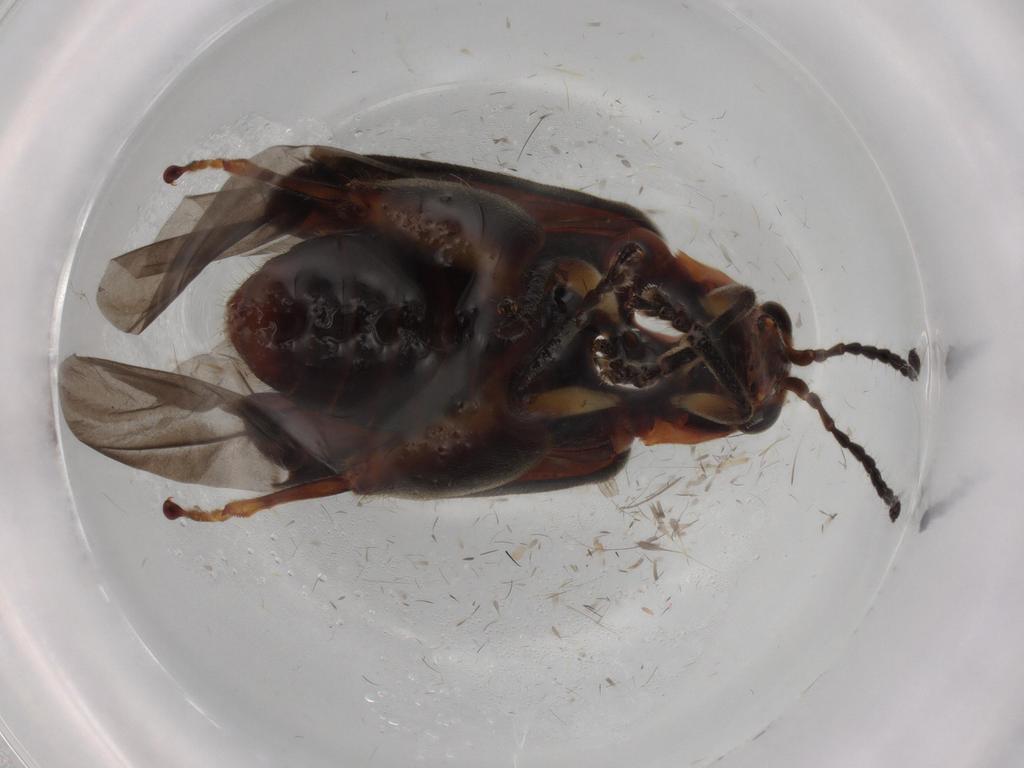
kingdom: Animalia
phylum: Arthropoda
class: Insecta
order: Coleoptera
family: Chrysomelidae
